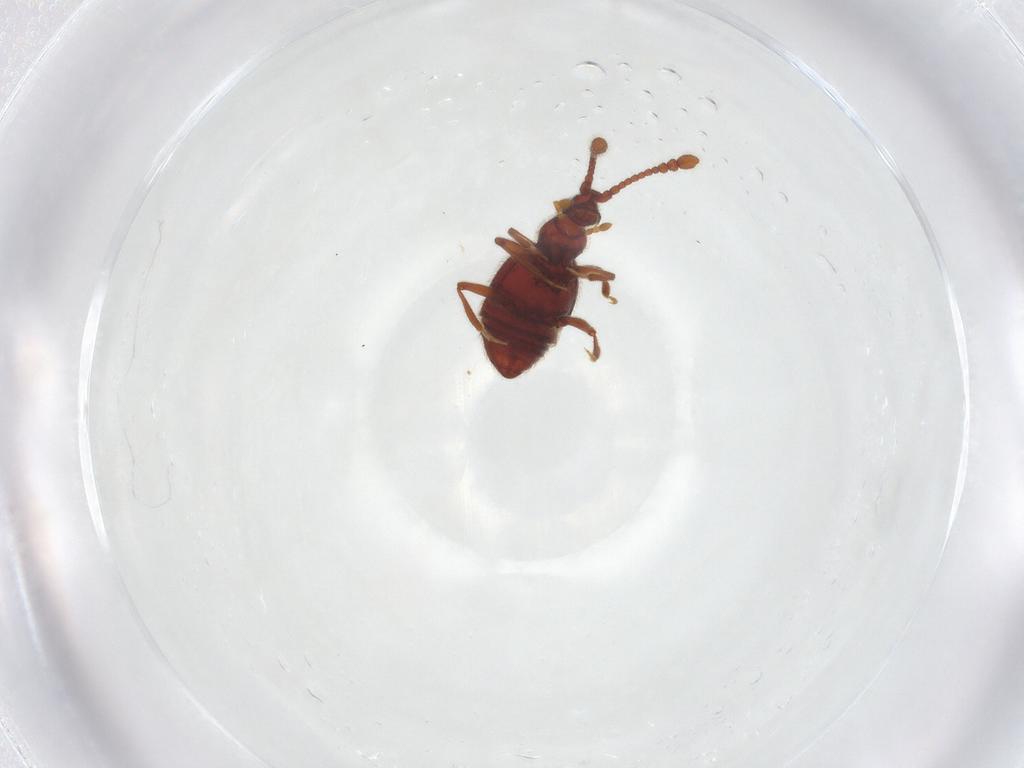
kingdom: Animalia
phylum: Arthropoda
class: Insecta
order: Coleoptera
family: Staphylinidae
